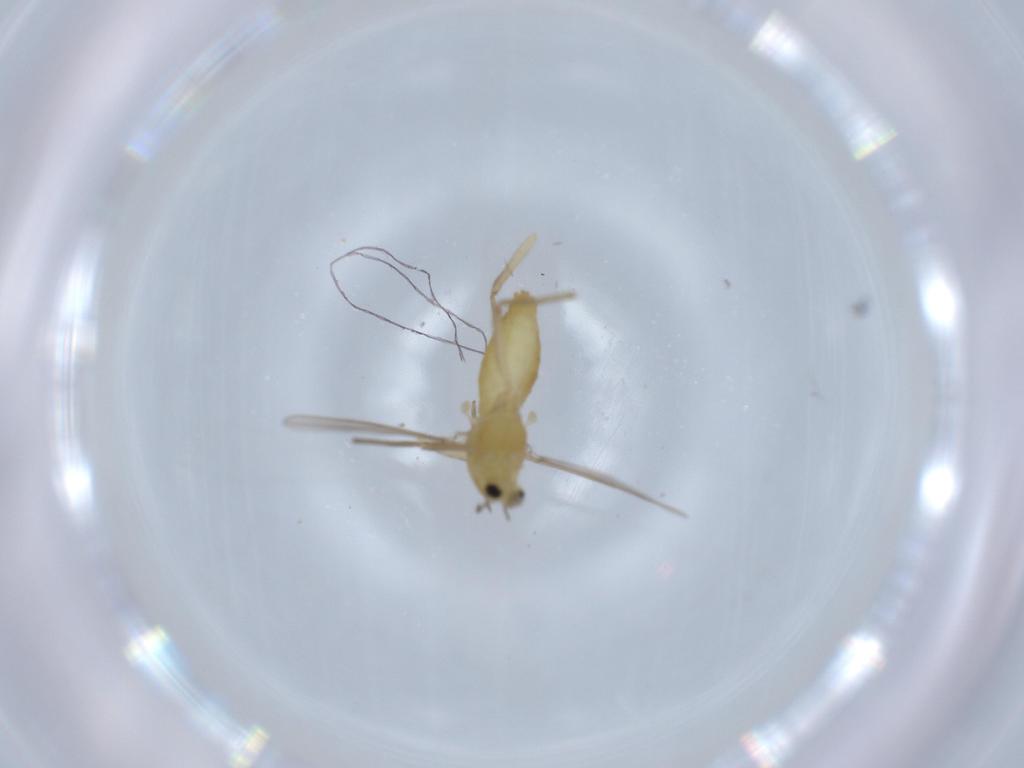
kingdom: Animalia
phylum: Arthropoda
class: Insecta
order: Diptera
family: Chironomidae
